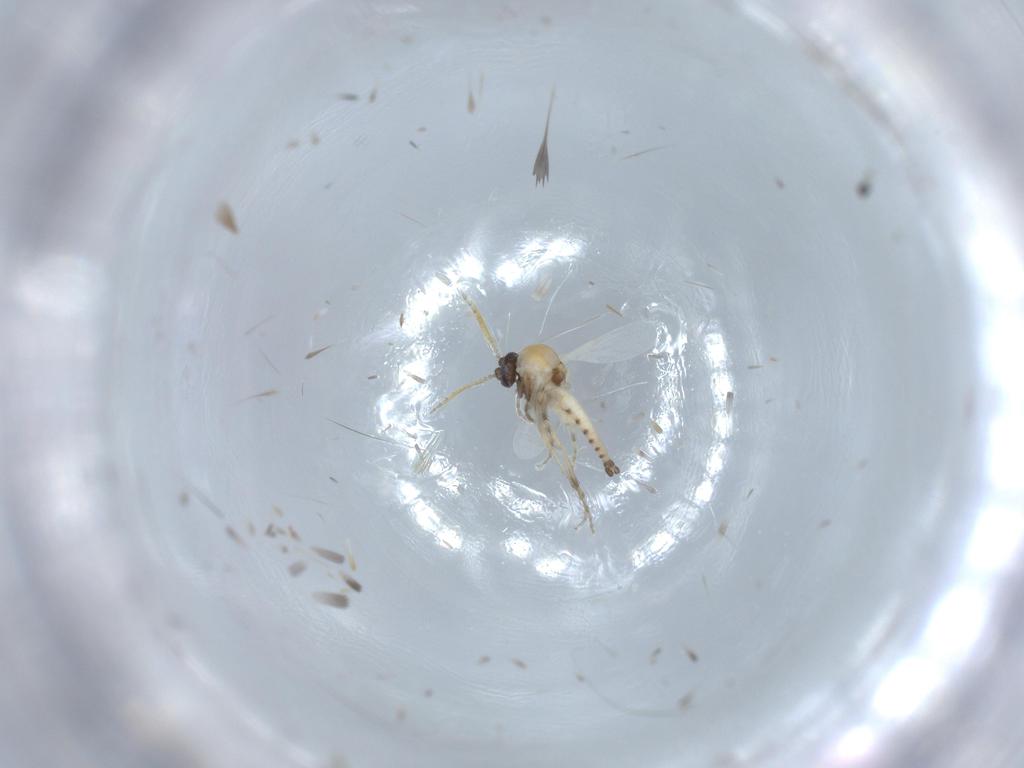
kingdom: Animalia
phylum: Arthropoda
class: Insecta
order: Diptera
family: Ceratopogonidae
